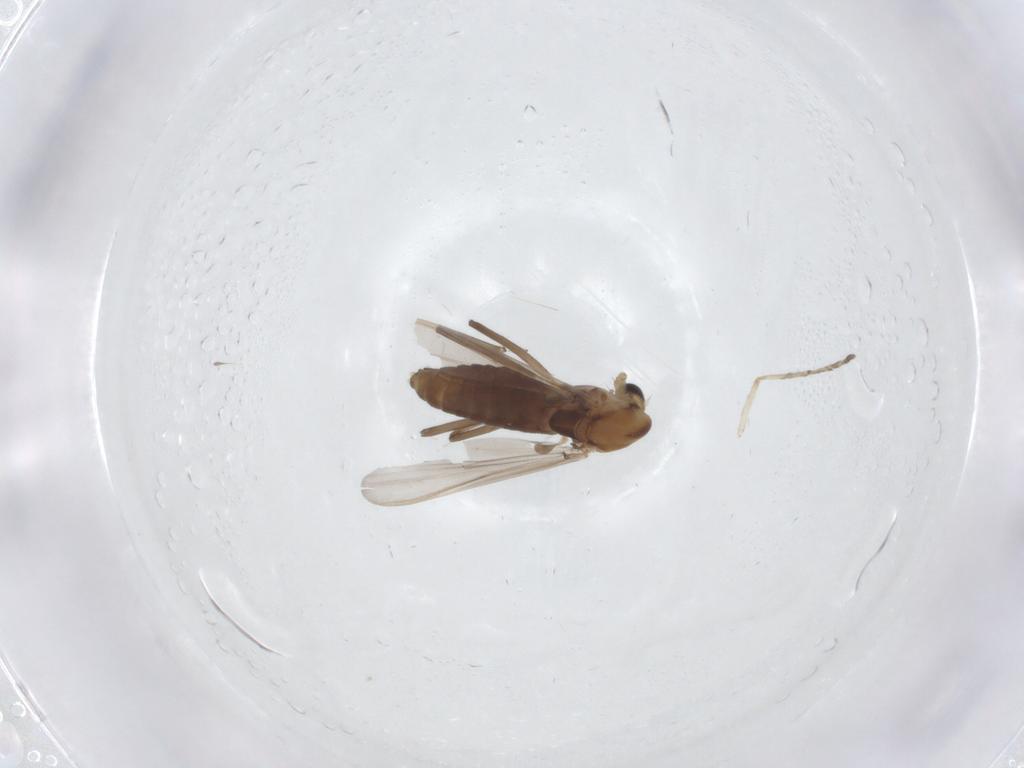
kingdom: Animalia
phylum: Arthropoda
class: Insecta
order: Diptera
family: Chironomidae
